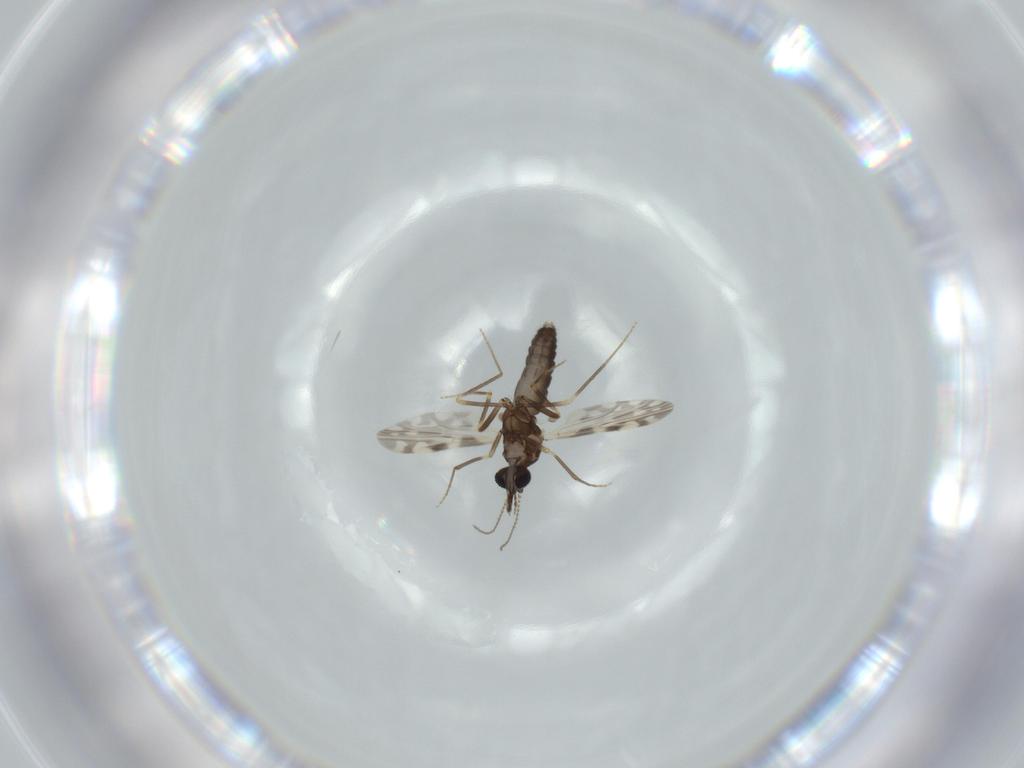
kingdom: Animalia
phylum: Arthropoda
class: Insecta
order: Diptera
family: Ceratopogonidae
